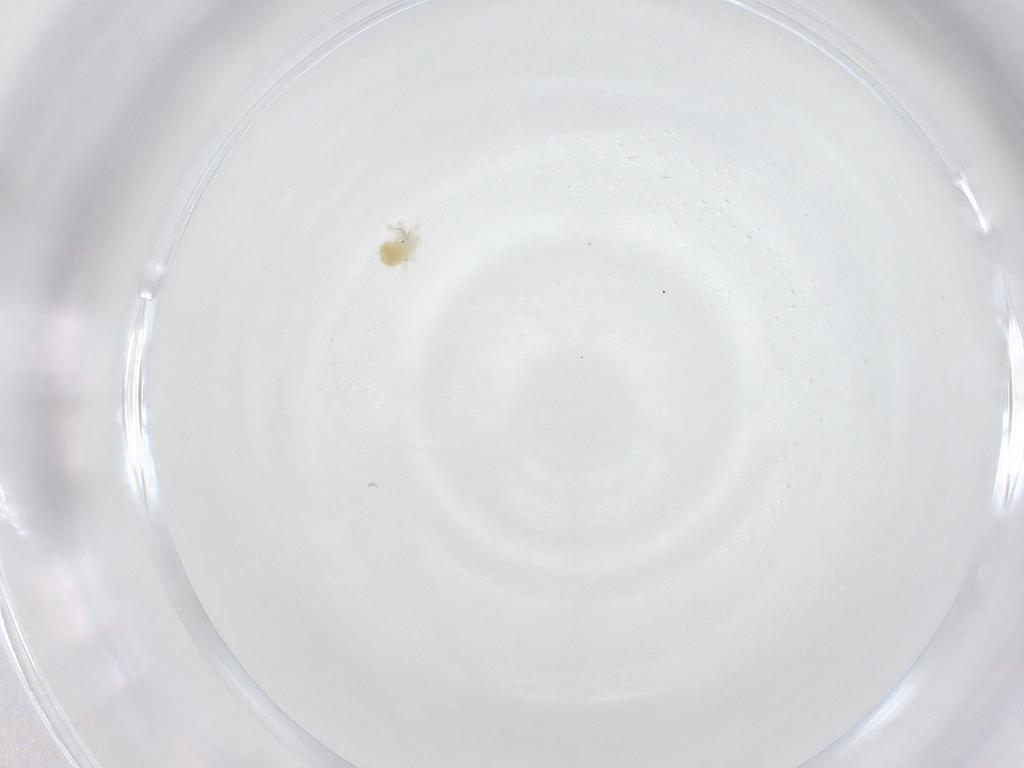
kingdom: Animalia
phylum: Arthropoda
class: Arachnida
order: Trombidiformes
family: Anystidae
